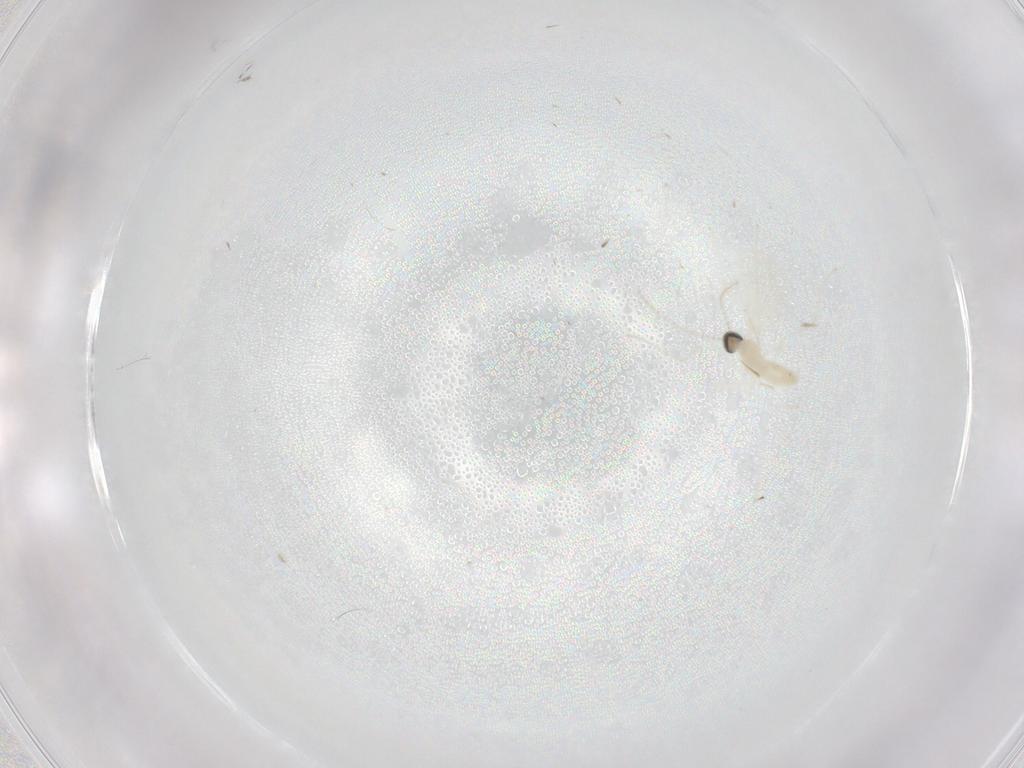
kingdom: Animalia
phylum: Arthropoda
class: Insecta
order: Diptera
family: Cecidomyiidae
